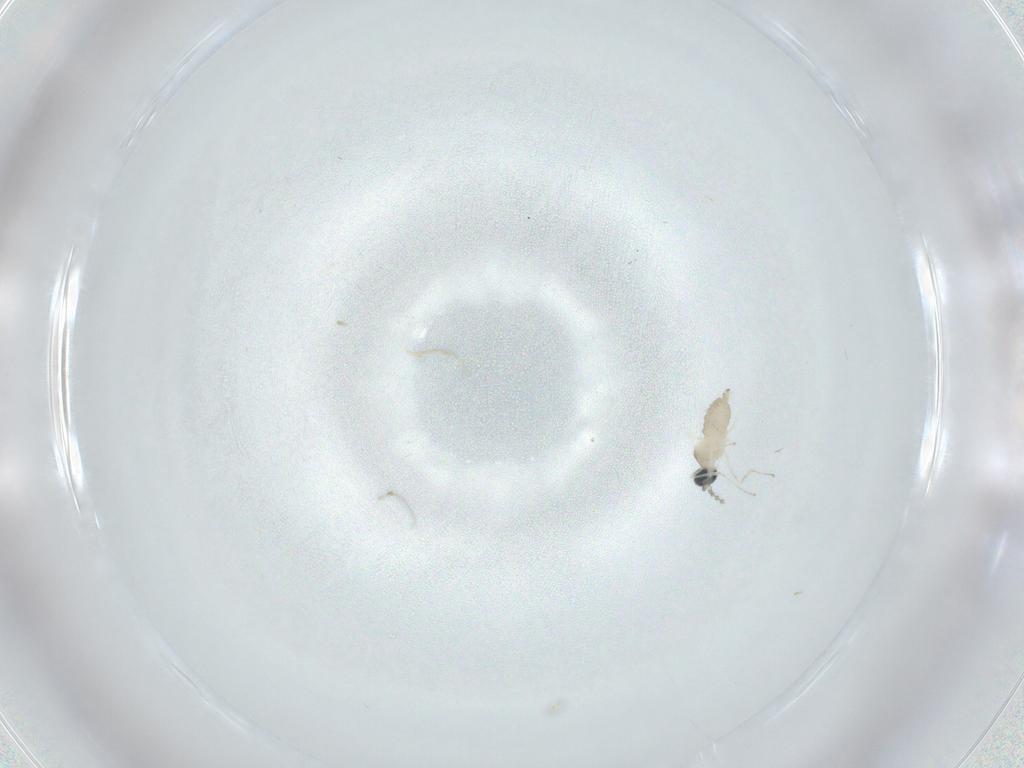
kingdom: Animalia
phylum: Arthropoda
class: Insecta
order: Diptera
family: Cecidomyiidae
